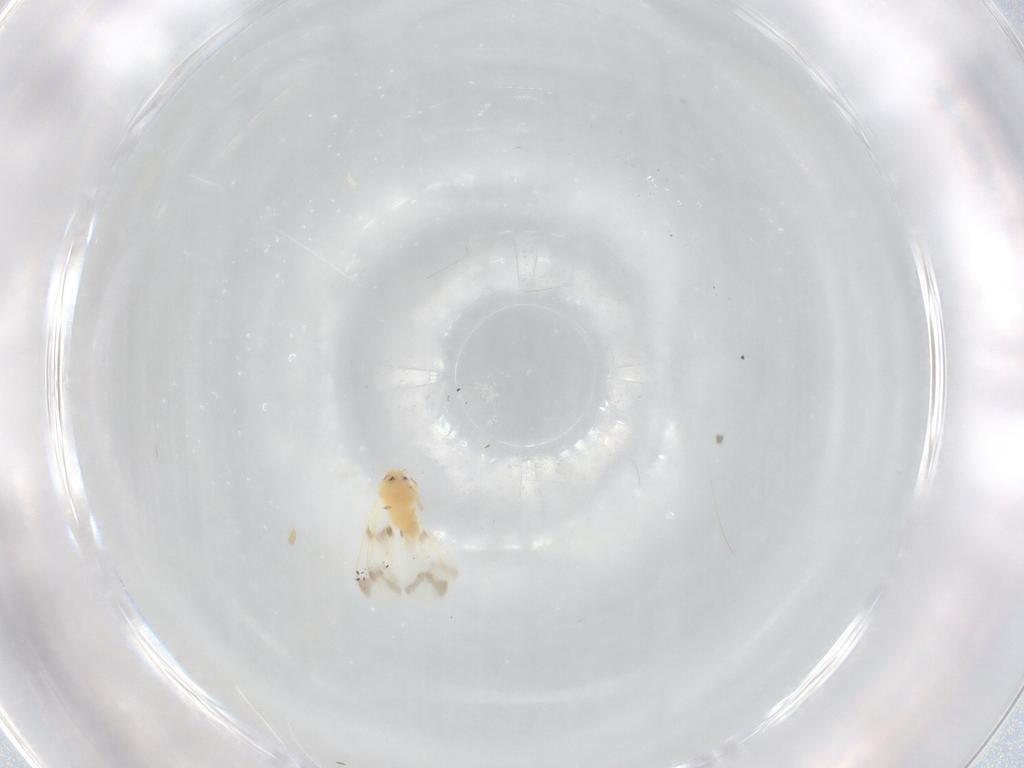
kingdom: Animalia
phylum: Arthropoda
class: Insecta
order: Hemiptera
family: Aleyrodidae
